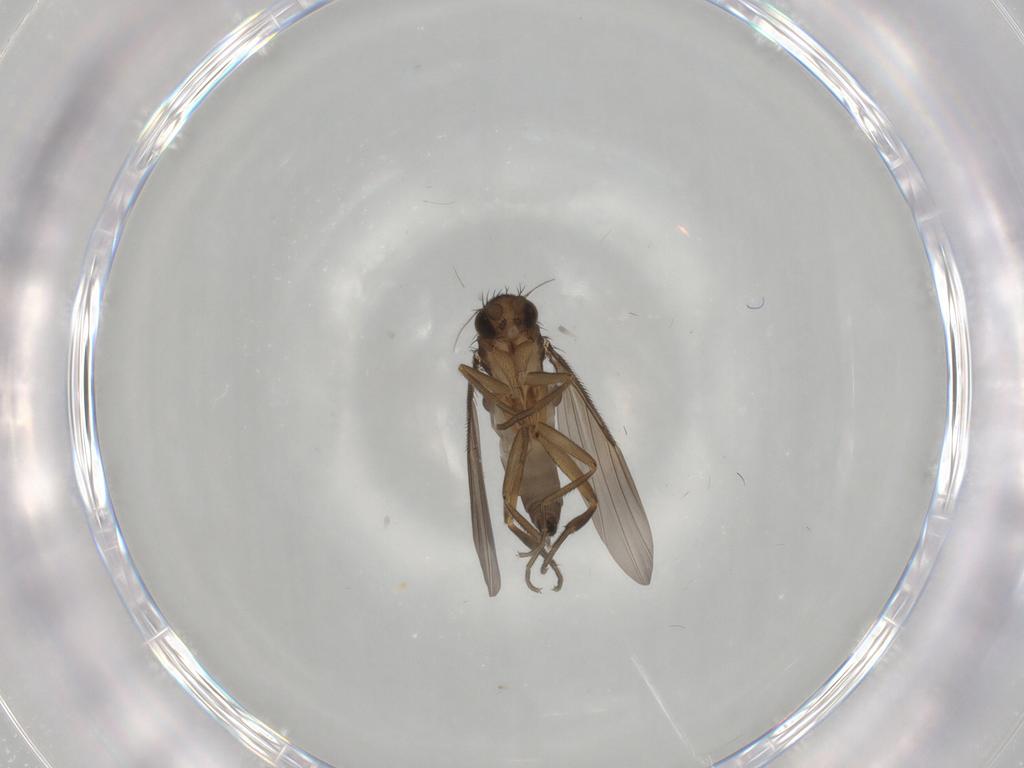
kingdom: Animalia
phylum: Arthropoda
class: Insecta
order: Diptera
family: Phoridae
